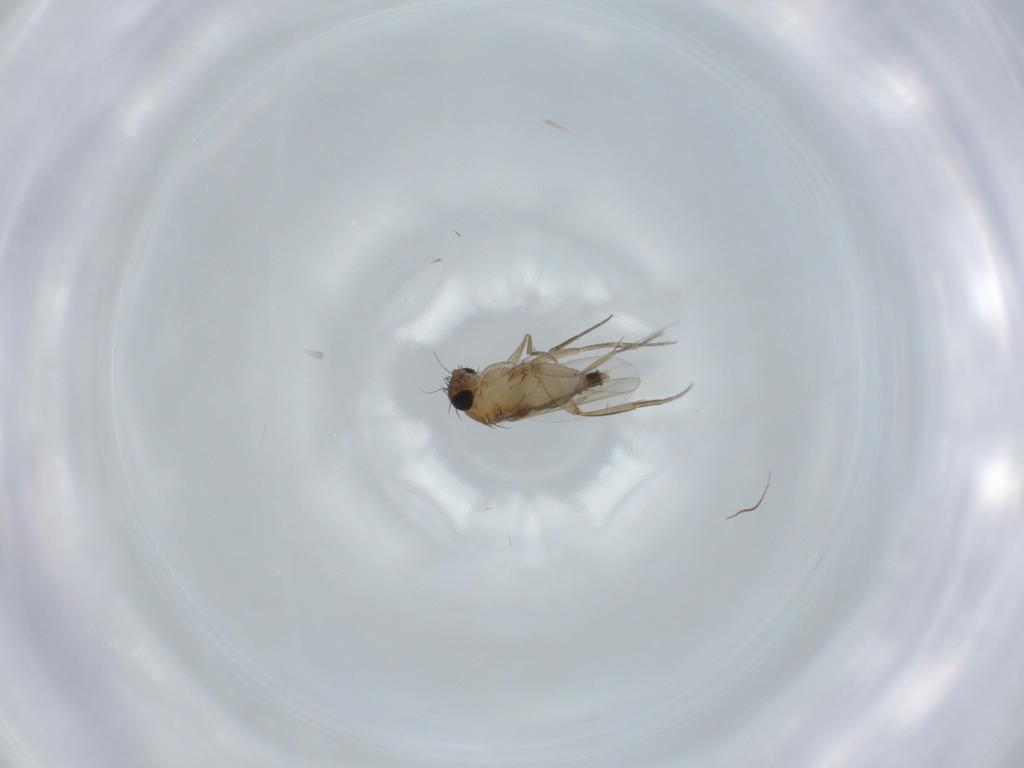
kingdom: Animalia
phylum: Arthropoda
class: Insecta
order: Diptera
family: Phoridae
